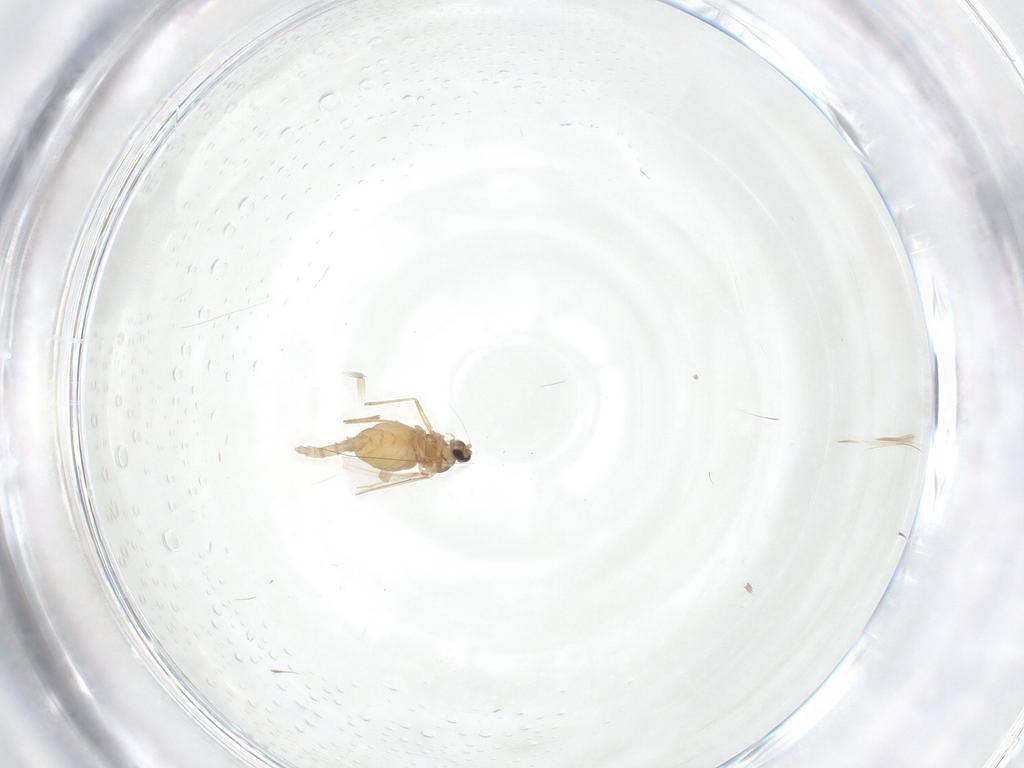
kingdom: Animalia
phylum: Arthropoda
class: Insecta
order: Diptera
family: Cecidomyiidae
